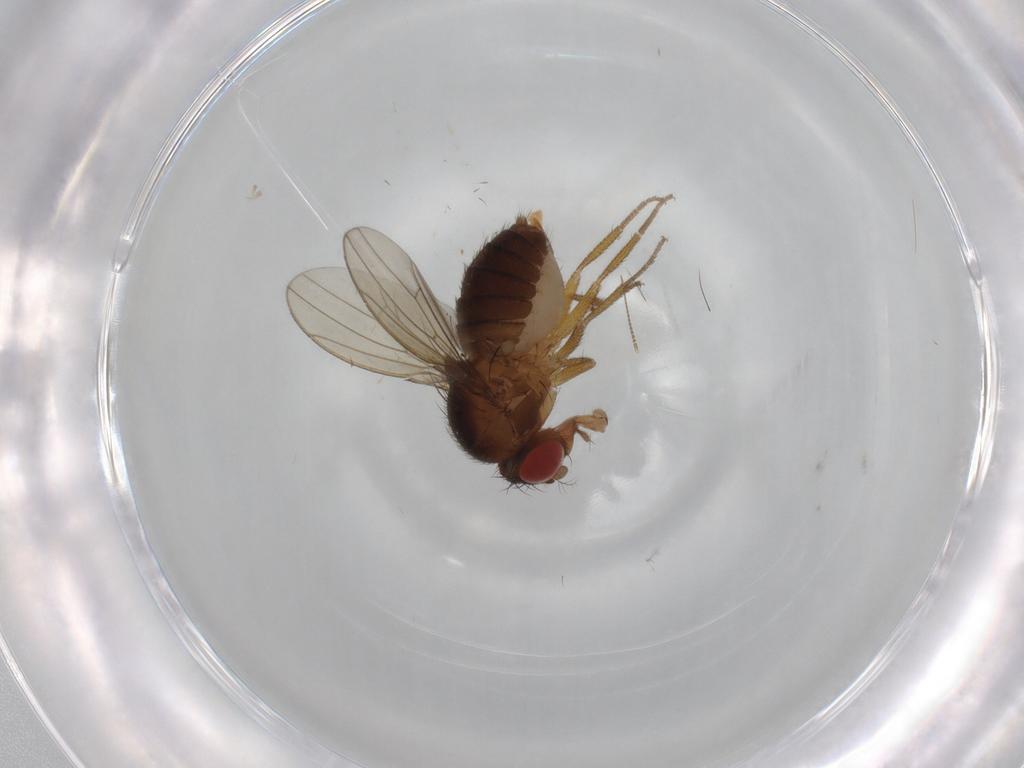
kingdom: Animalia
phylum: Arthropoda
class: Insecta
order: Diptera
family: Drosophilidae
